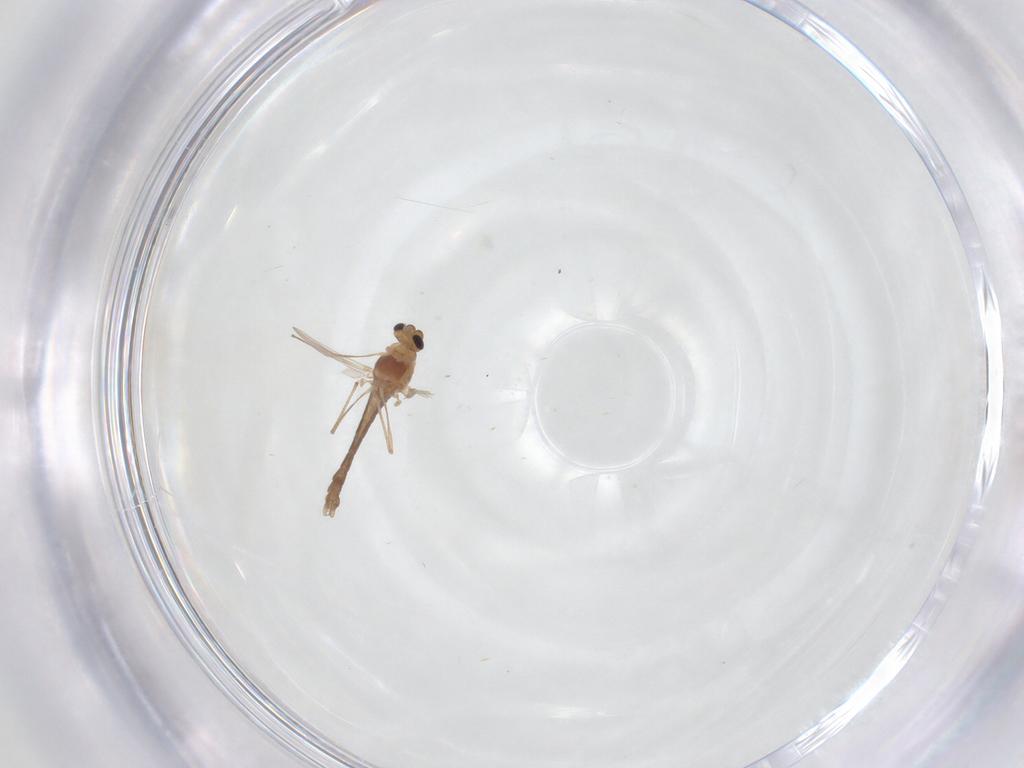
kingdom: Animalia
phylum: Arthropoda
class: Insecta
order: Diptera
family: Chironomidae
